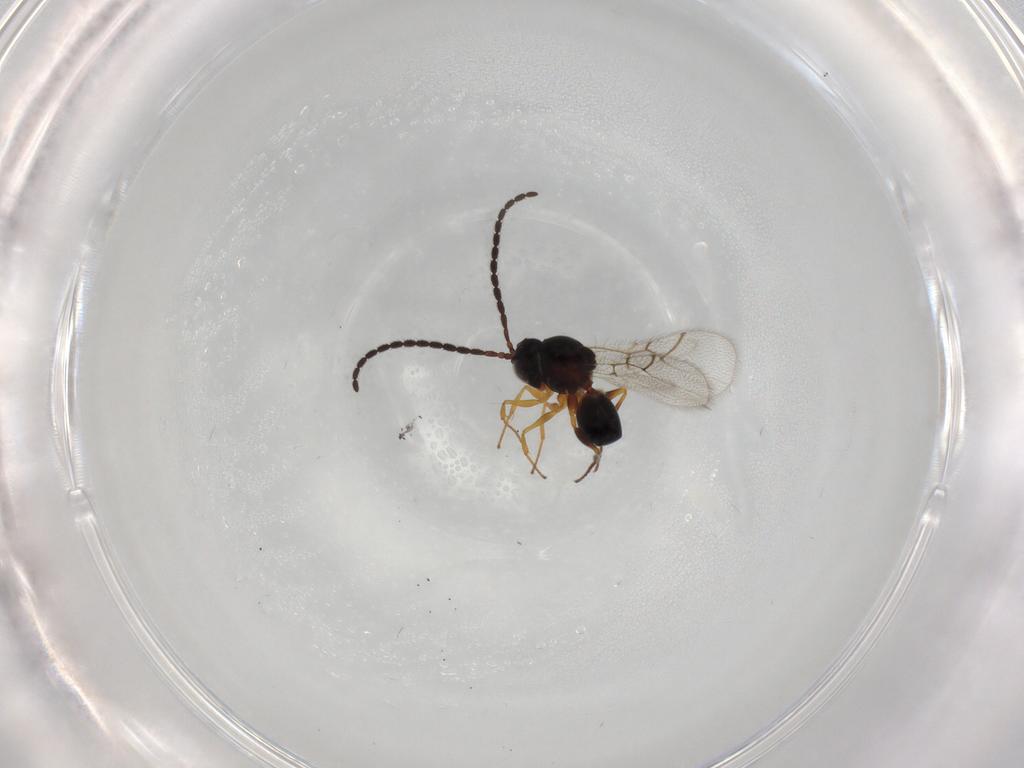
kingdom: Animalia
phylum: Arthropoda
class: Insecta
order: Hymenoptera
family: Figitidae
